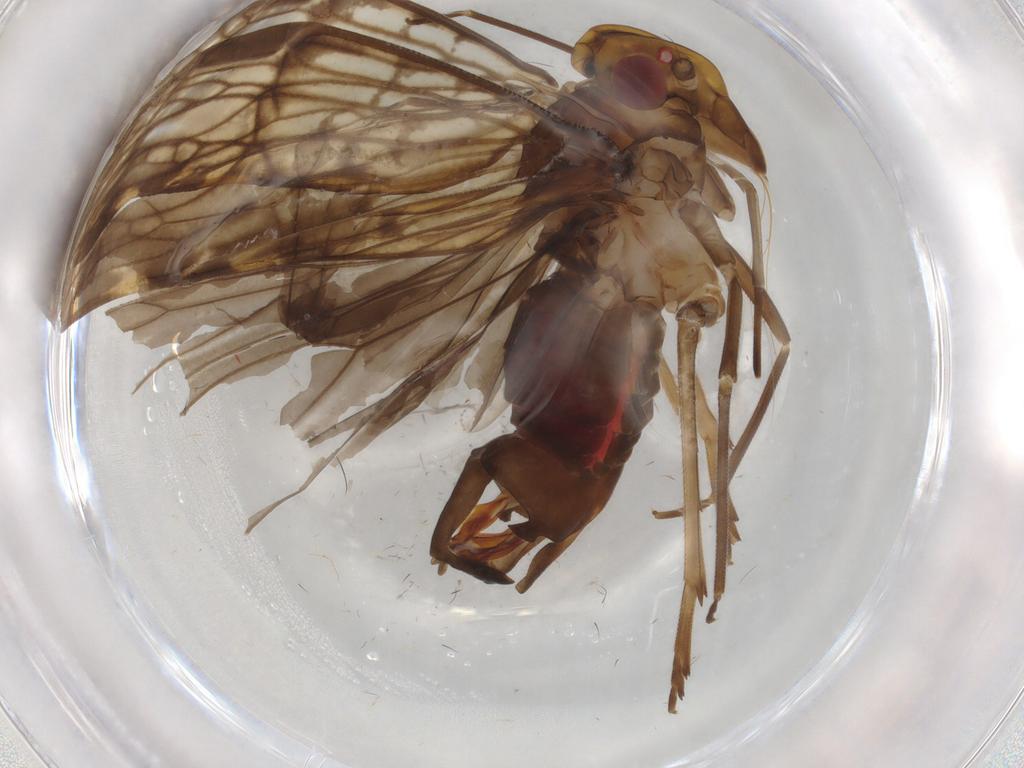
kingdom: Animalia
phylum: Arthropoda
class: Insecta
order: Hemiptera
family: Cixiidae
